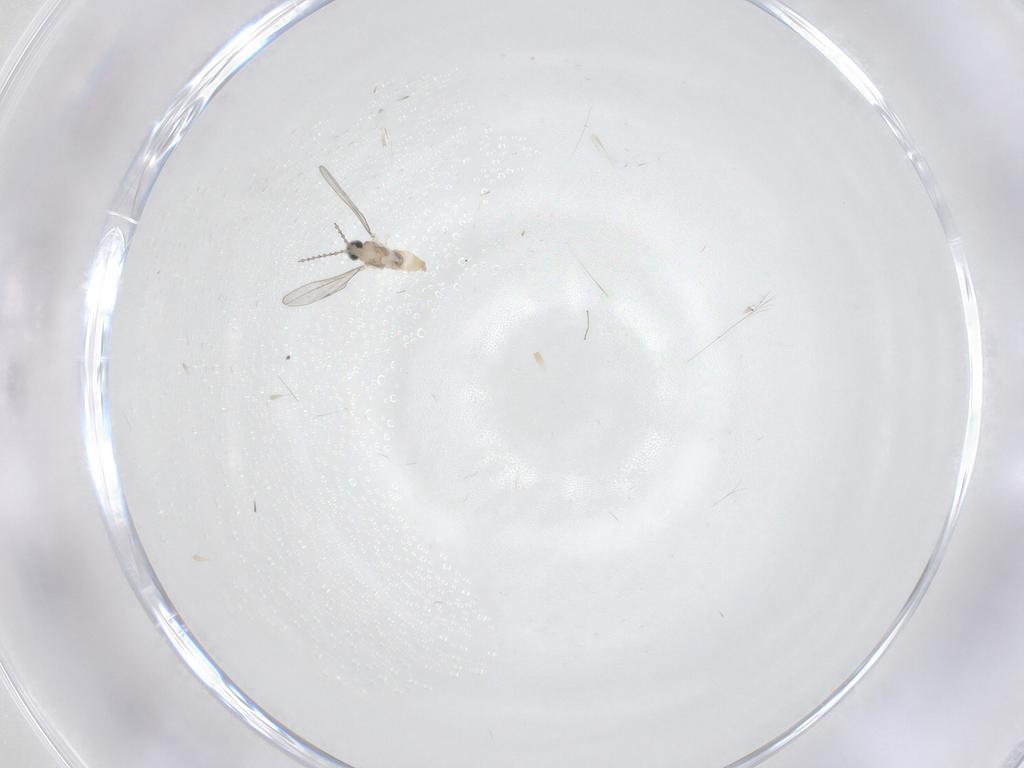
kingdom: Animalia
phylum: Arthropoda
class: Insecta
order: Diptera
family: Cecidomyiidae
